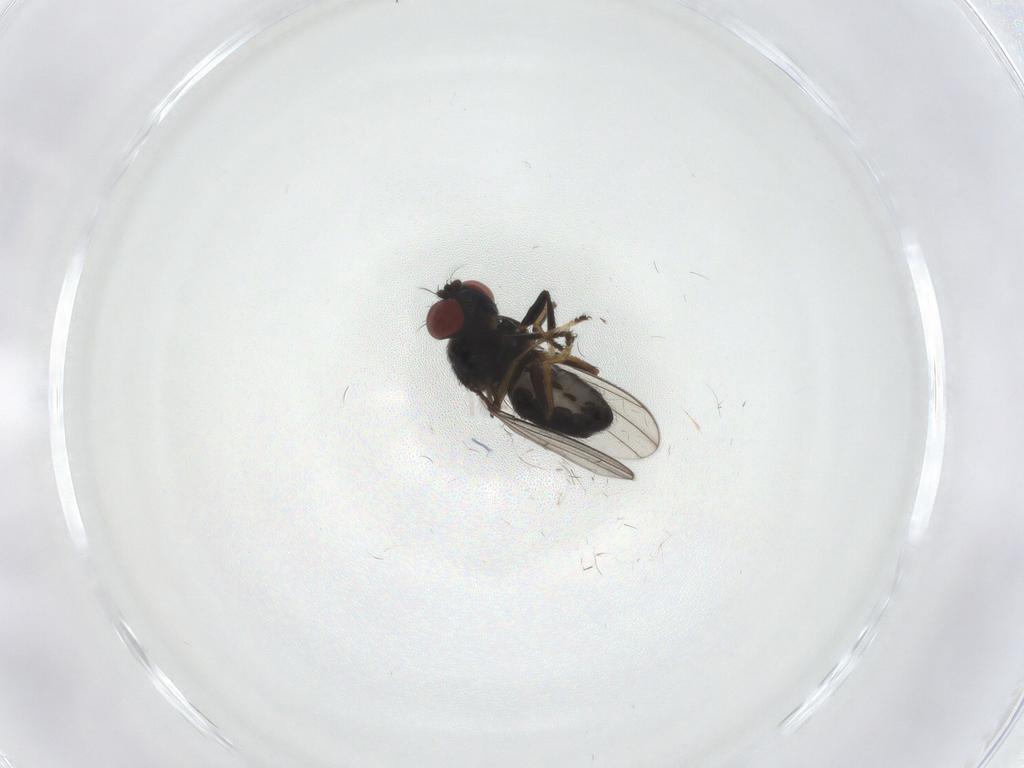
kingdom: Animalia
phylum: Arthropoda
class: Insecta
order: Diptera
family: Ephydridae
